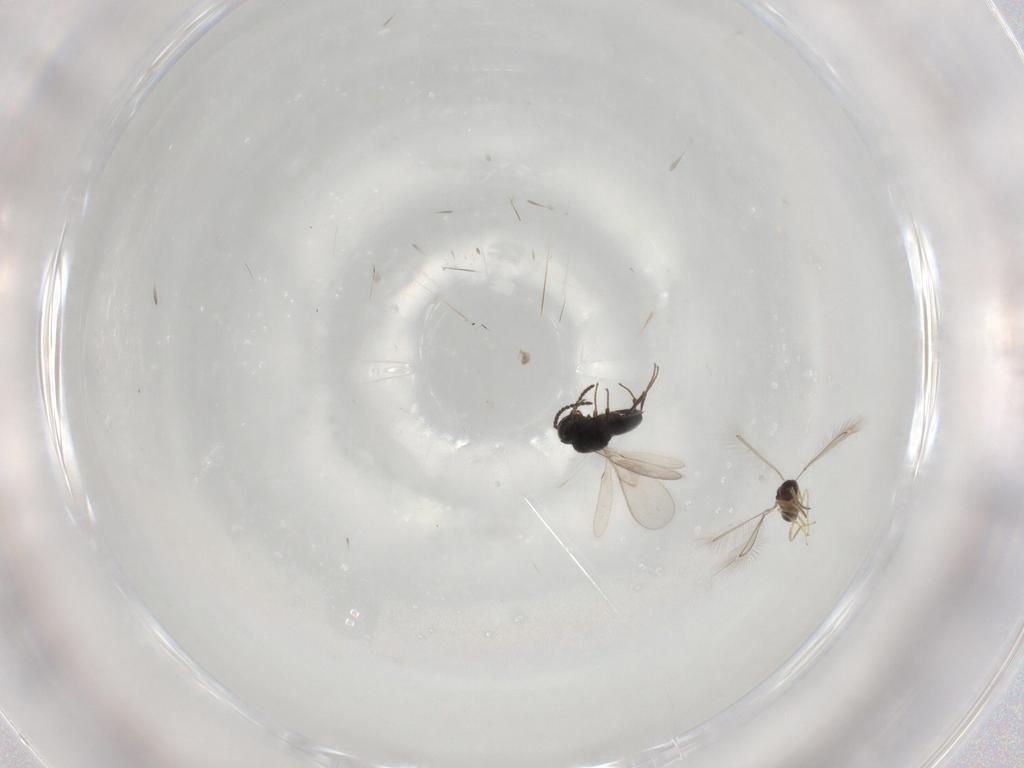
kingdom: Animalia
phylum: Arthropoda
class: Insecta
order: Hymenoptera
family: Scelionidae
